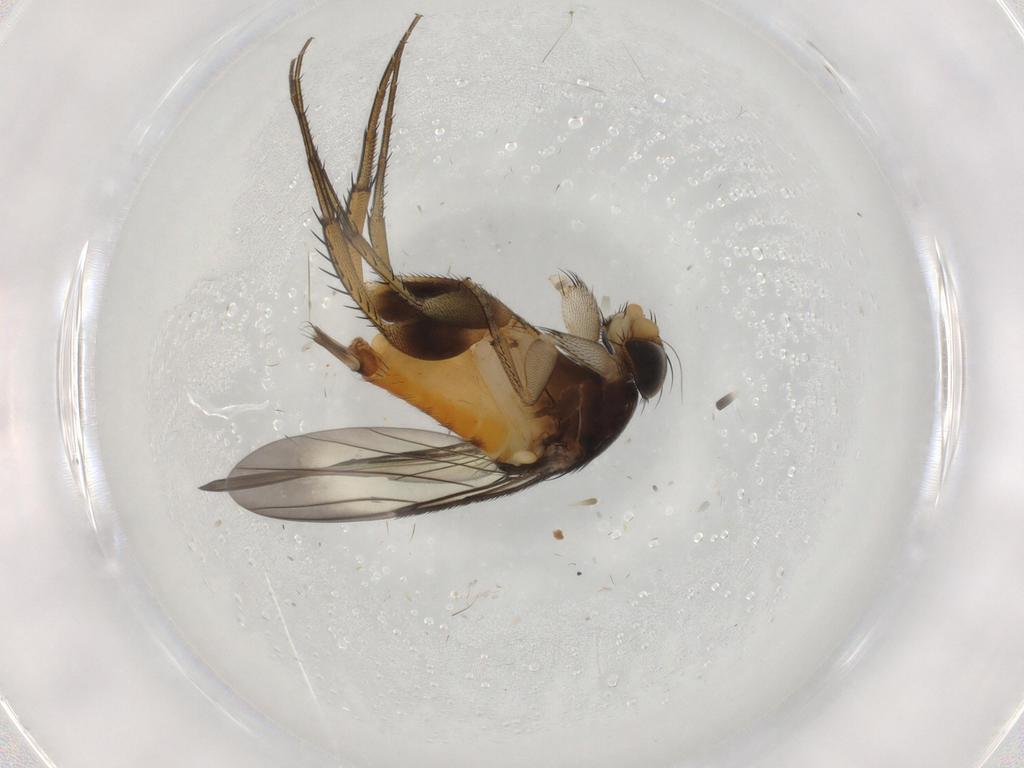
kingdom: Animalia
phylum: Arthropoda
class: Insecta
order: Diptera
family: Phoridae
